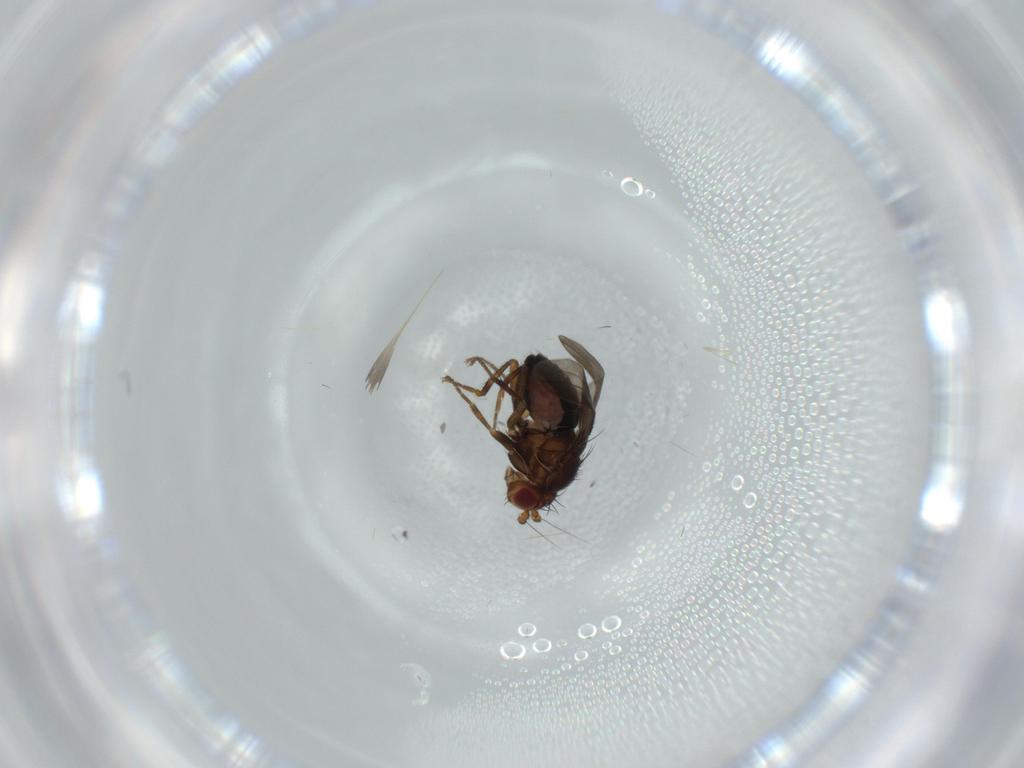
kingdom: Animalia
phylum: Arthropoda
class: Insecta
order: Diptera
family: Sphaeroceridae
